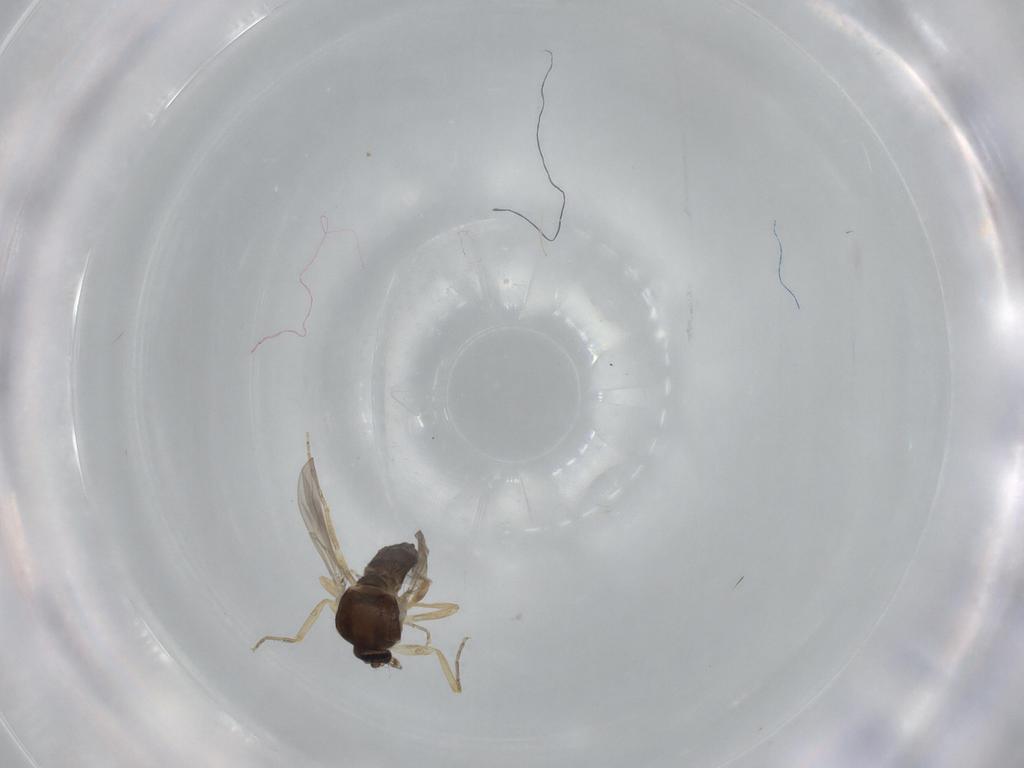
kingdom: Animalia
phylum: Arthropoda
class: Insecta
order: Diptera
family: Ceratopogonidae
